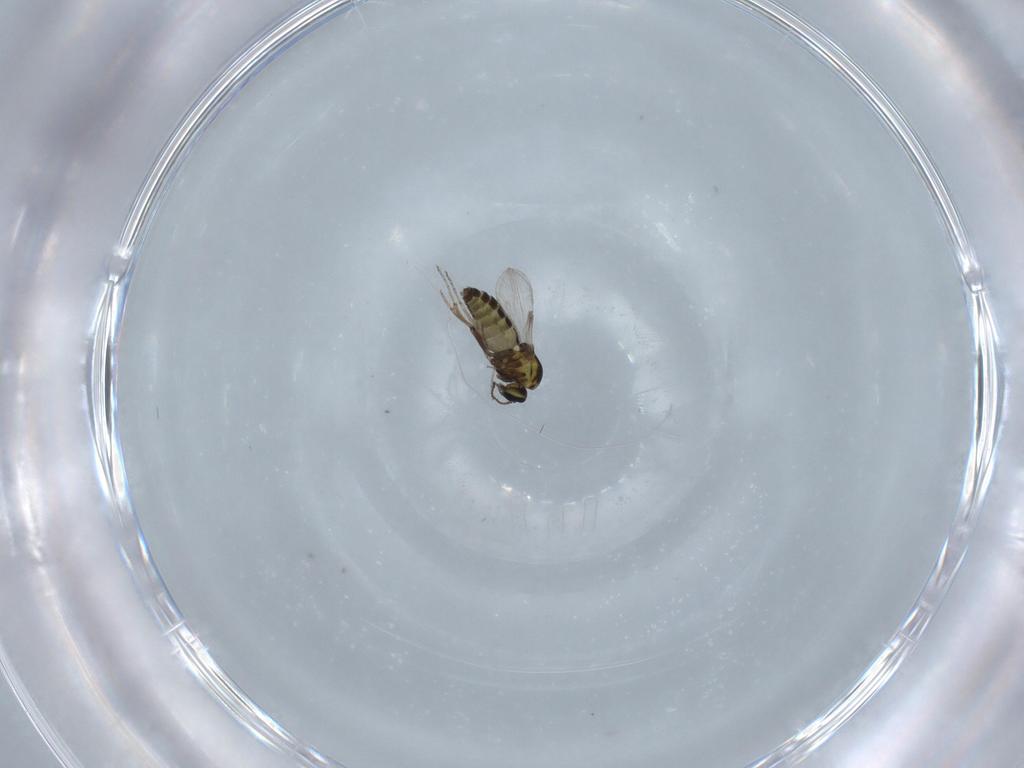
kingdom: Animalia
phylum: Arthropoda
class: Insecta
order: Diptera
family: Ceratopogonidae
